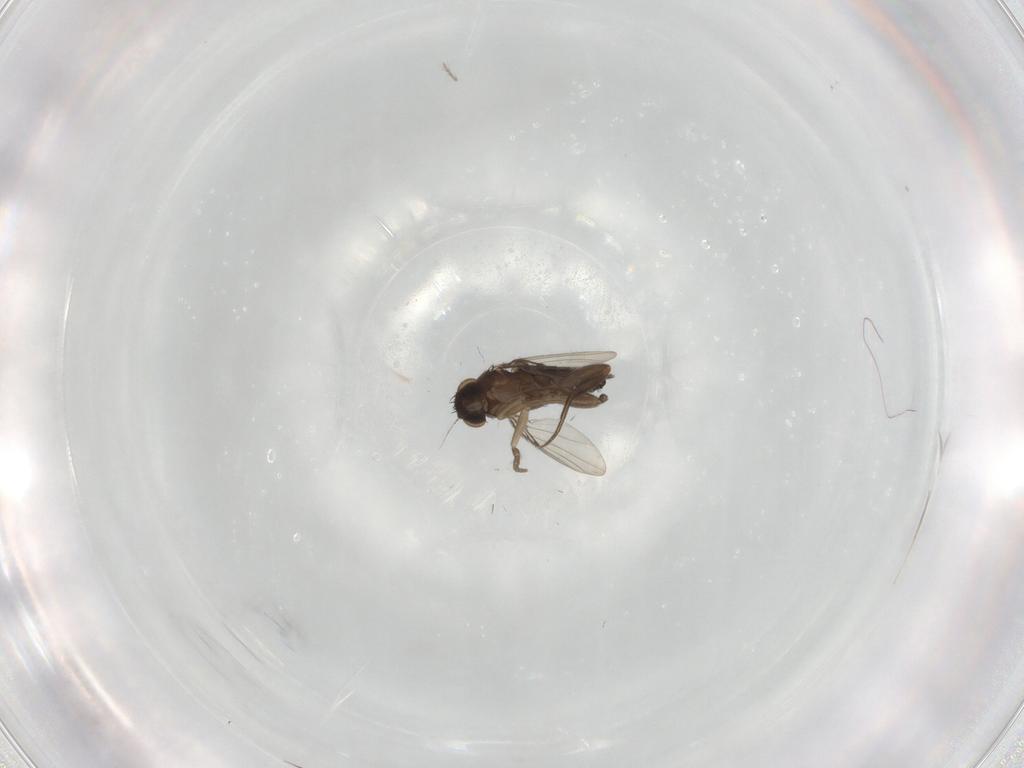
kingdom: Animalia
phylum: Arthropoda
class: Insecta
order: Diptera
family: Phoridae
